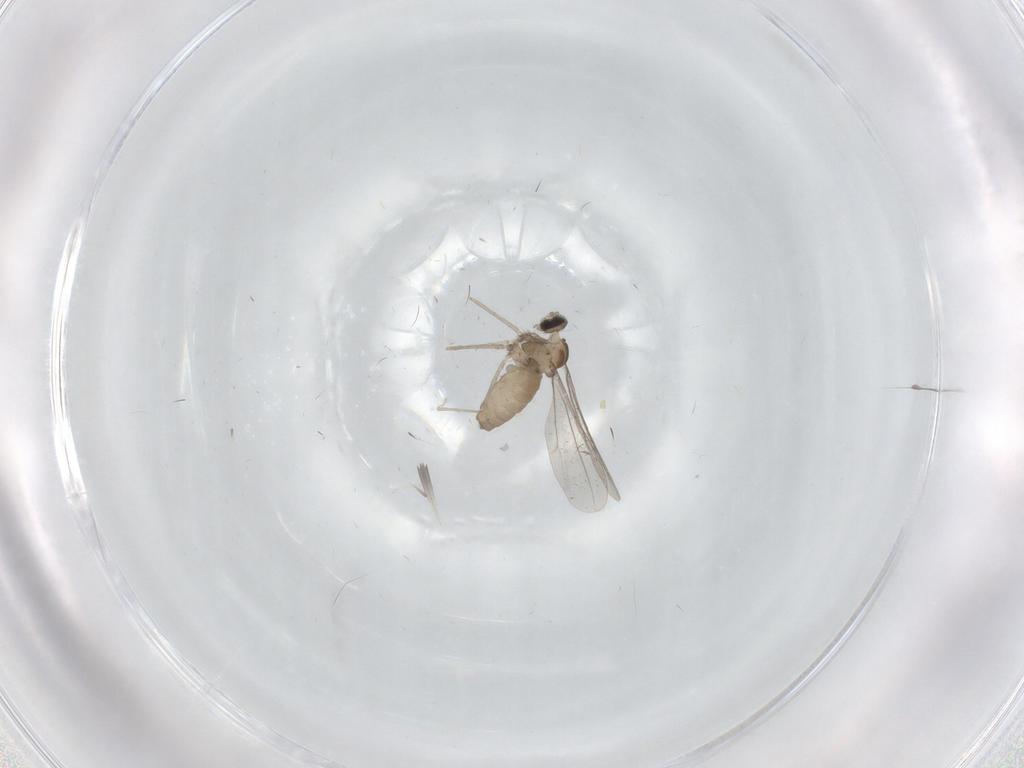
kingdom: Animalia
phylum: Arthropoda
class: Insecta
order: Diptera
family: Cecidomyiidae
